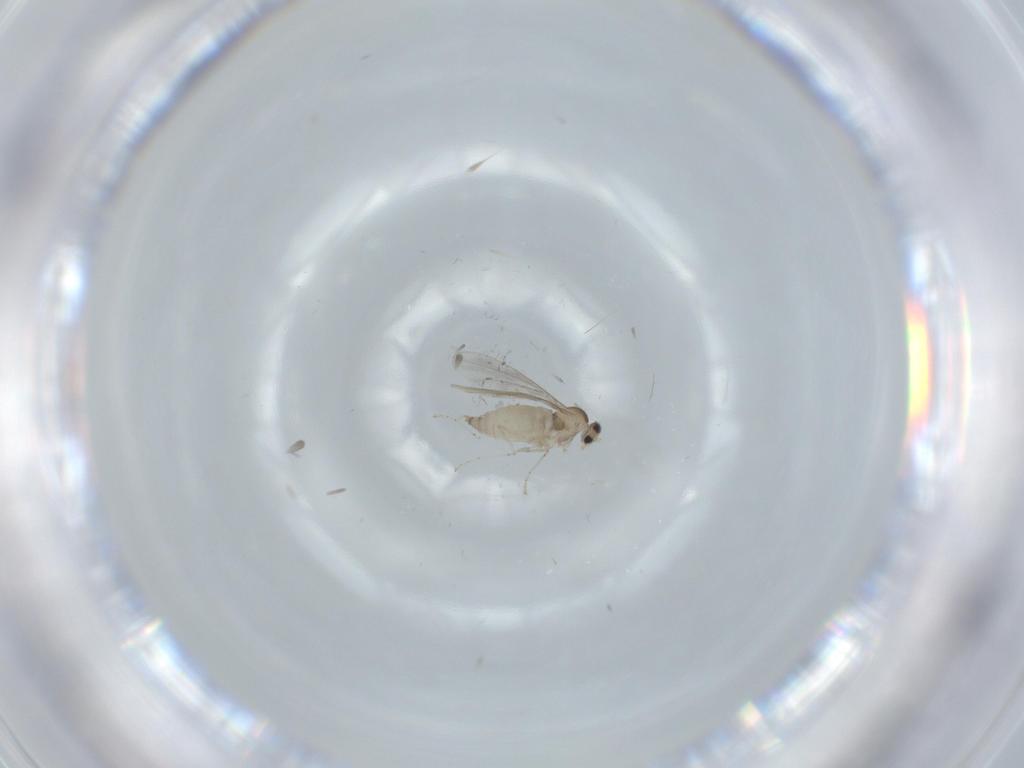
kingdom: Animalia
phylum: Arthropoda
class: Insecta
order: Diptera
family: Cecidomyiidae
